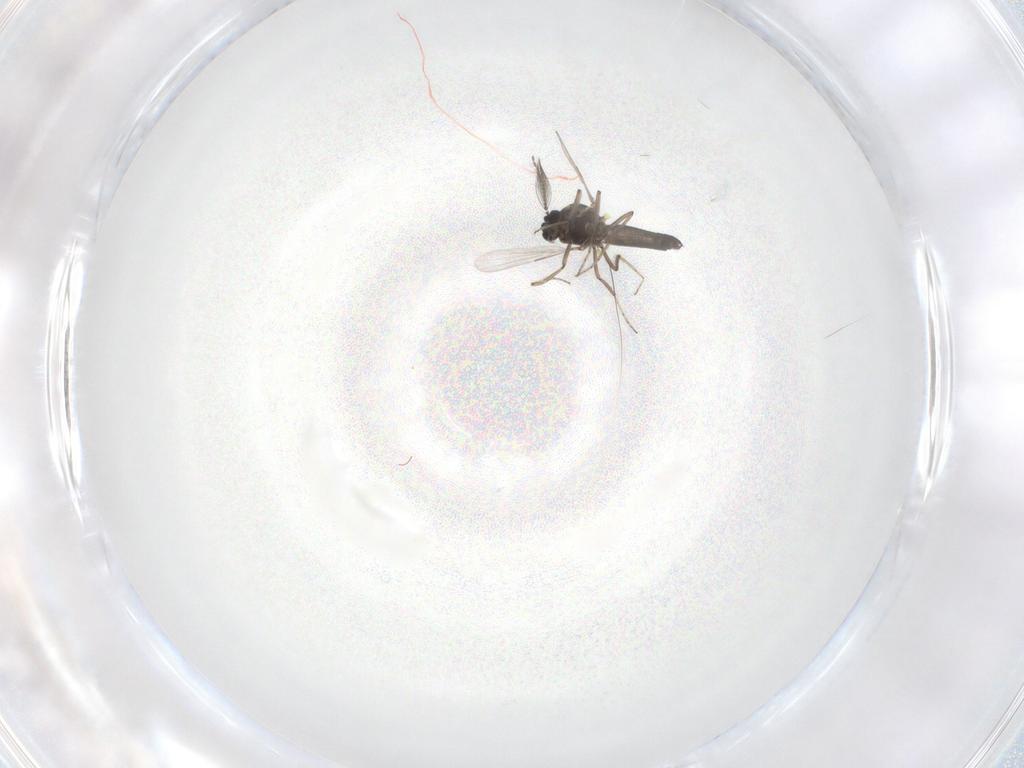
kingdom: Animalia
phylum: Arthropoda
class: Insecta
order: Diptera
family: Ceratopogonidae
